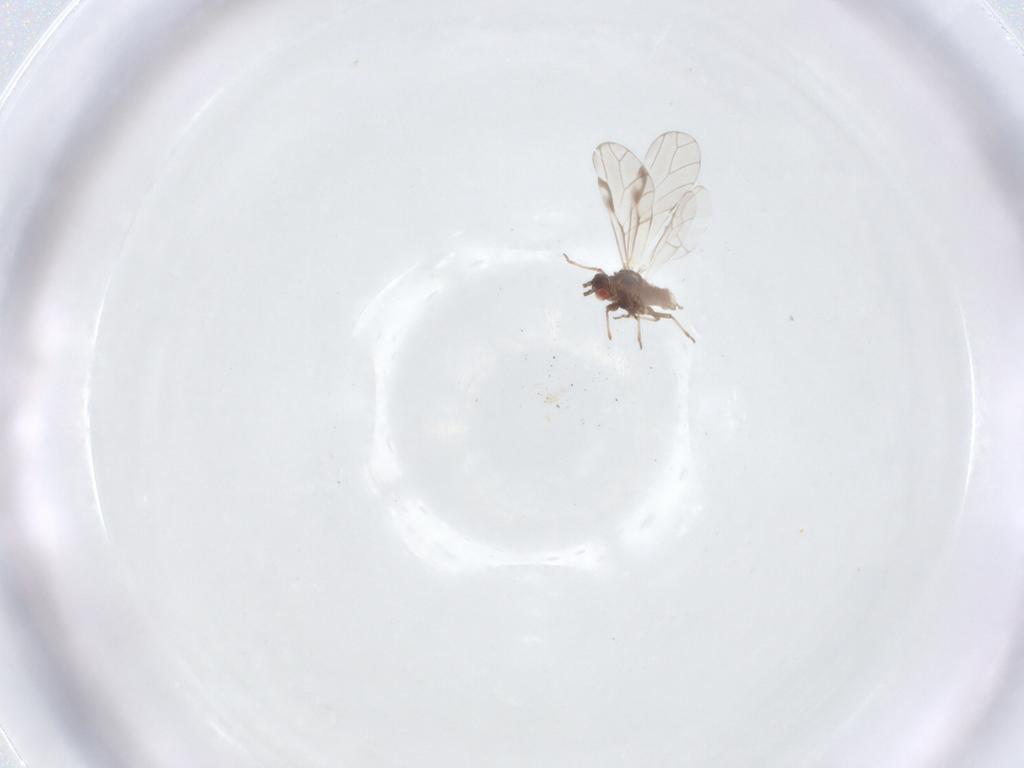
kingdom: Animalia
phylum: Arthropoda
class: Insecta
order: Hemiptera
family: Aphididae
